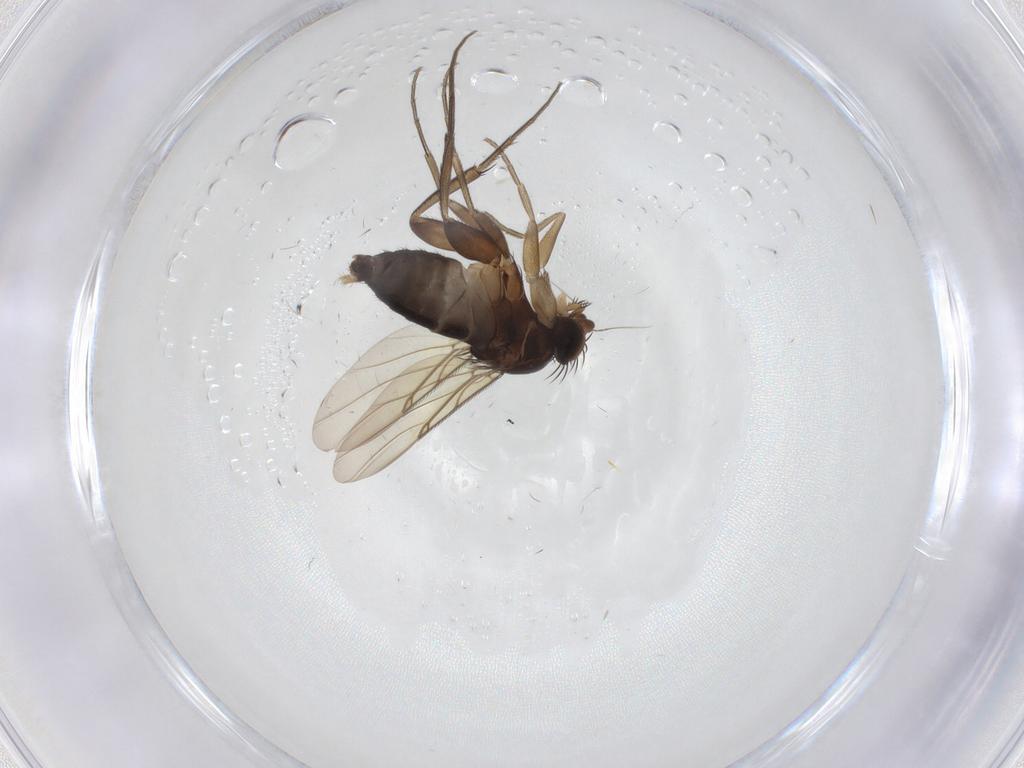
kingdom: Animalia
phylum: Arthropoda
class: Insecta
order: Diptera
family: Phoridae
